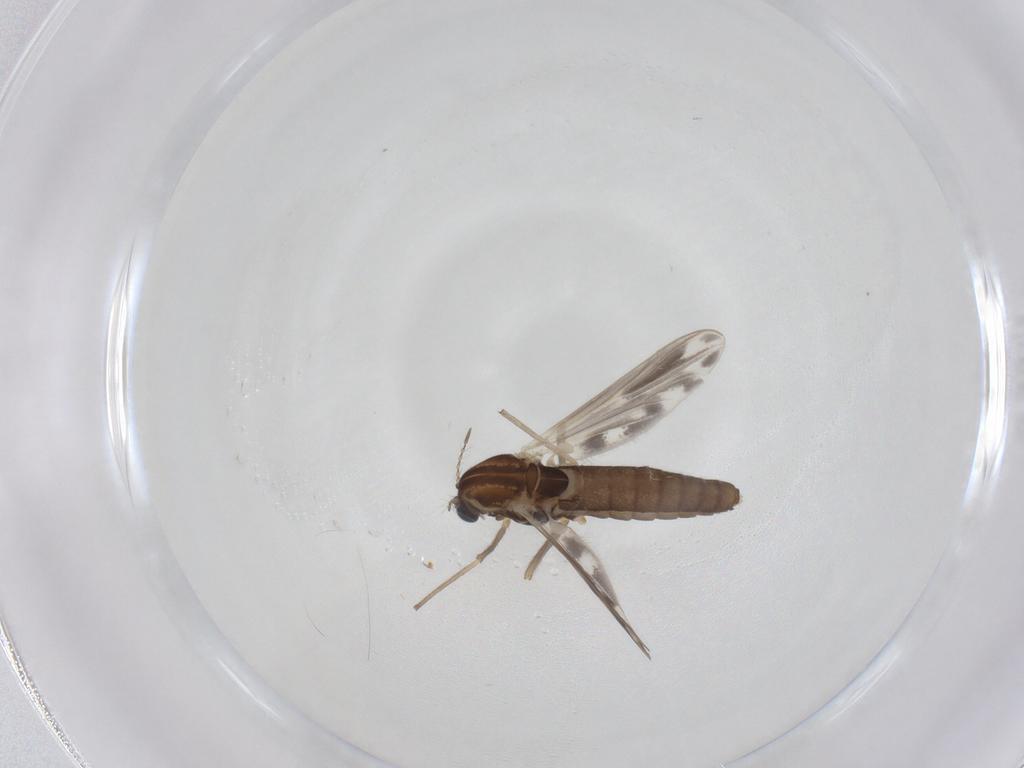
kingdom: Animalia
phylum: Arthropoda
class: Insecta
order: Diptera
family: Chironomidae
